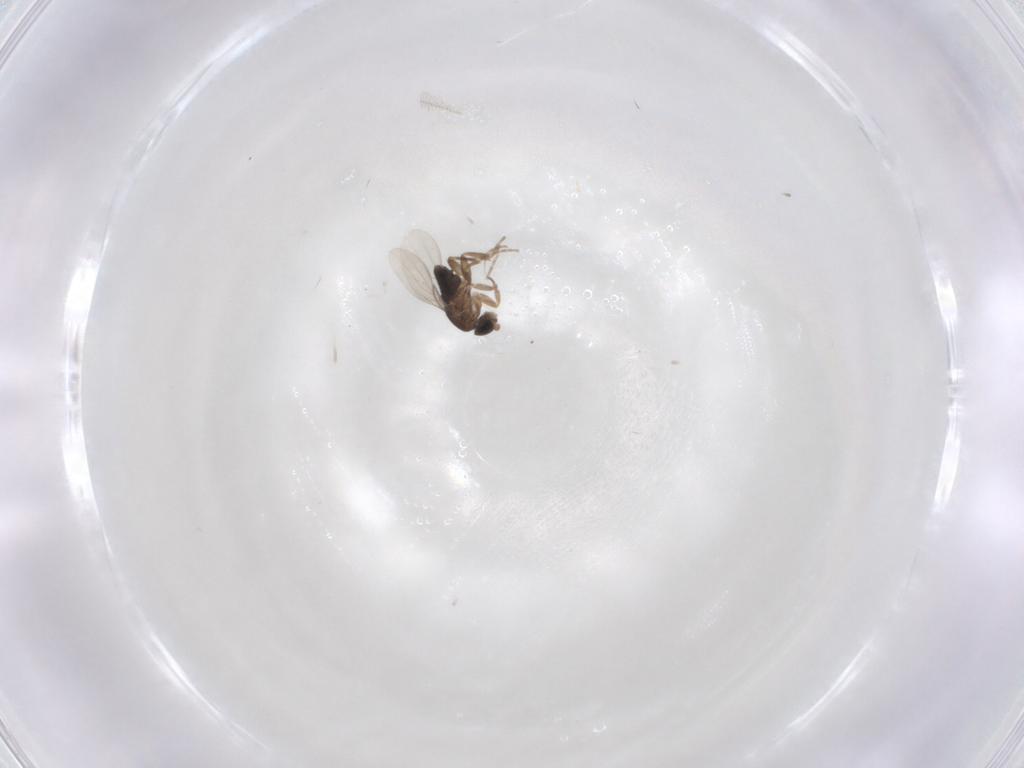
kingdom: Animalia
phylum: Arthropoda
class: Insecta
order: Diptera
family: Phoridae
